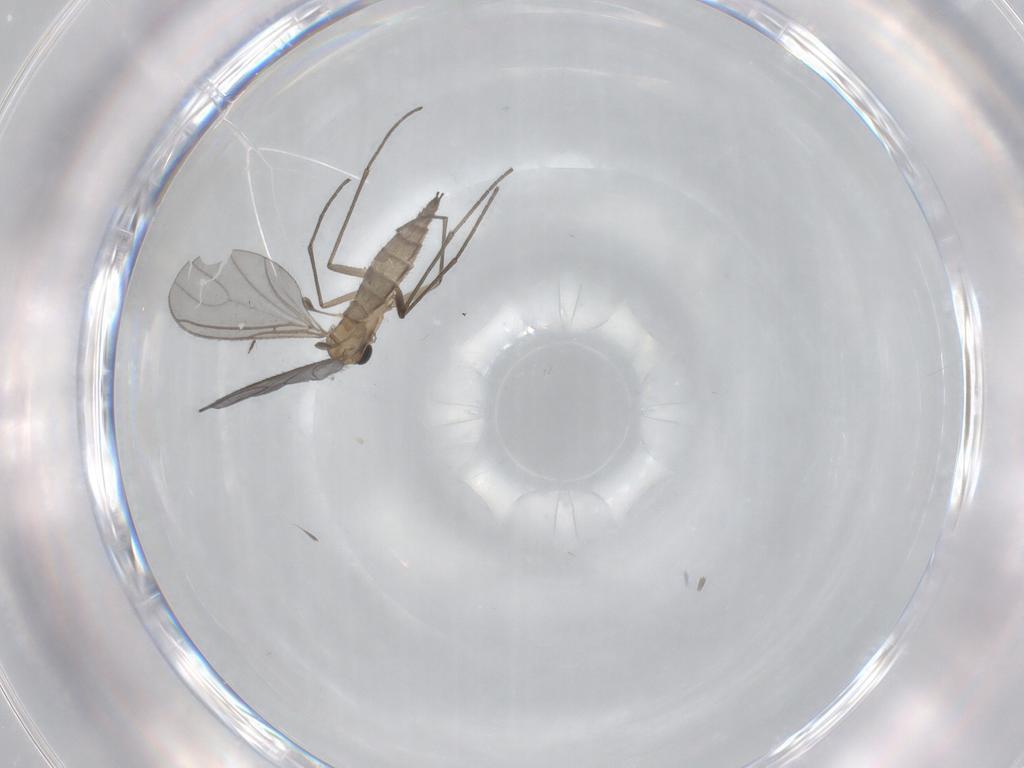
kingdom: Animalia
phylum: Arthropoda
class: Insecta
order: Diptera
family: Sciaridae
